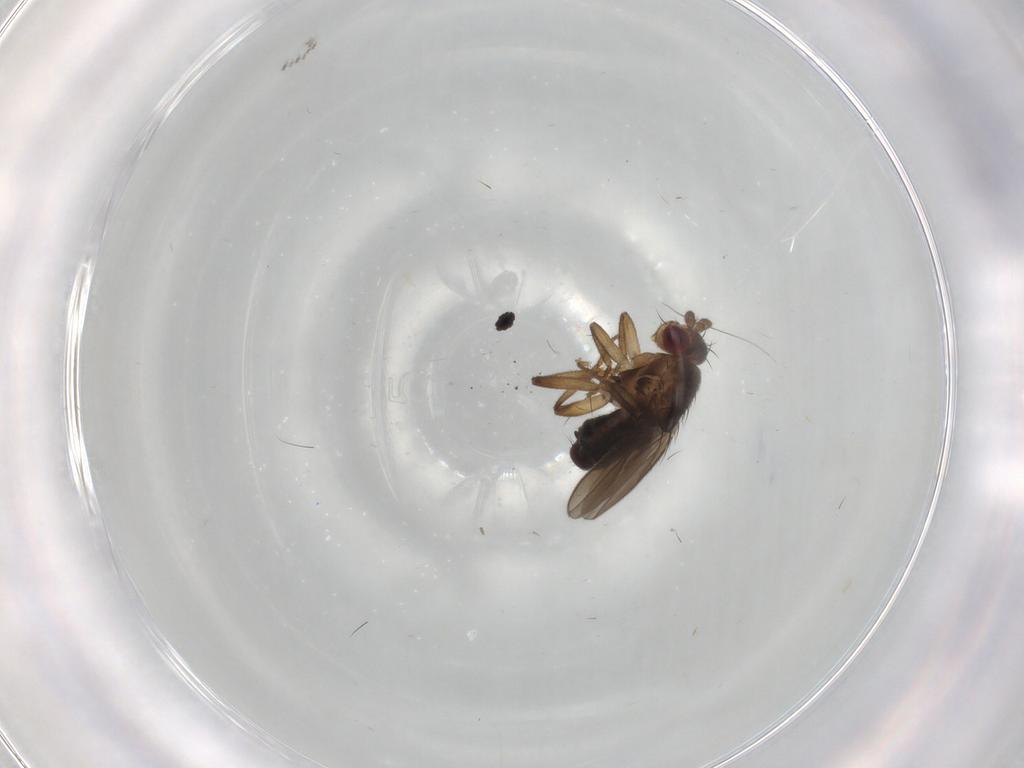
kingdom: Animalia
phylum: Arthropoda
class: Insecta
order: Diptera
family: Sphaeroceridae
